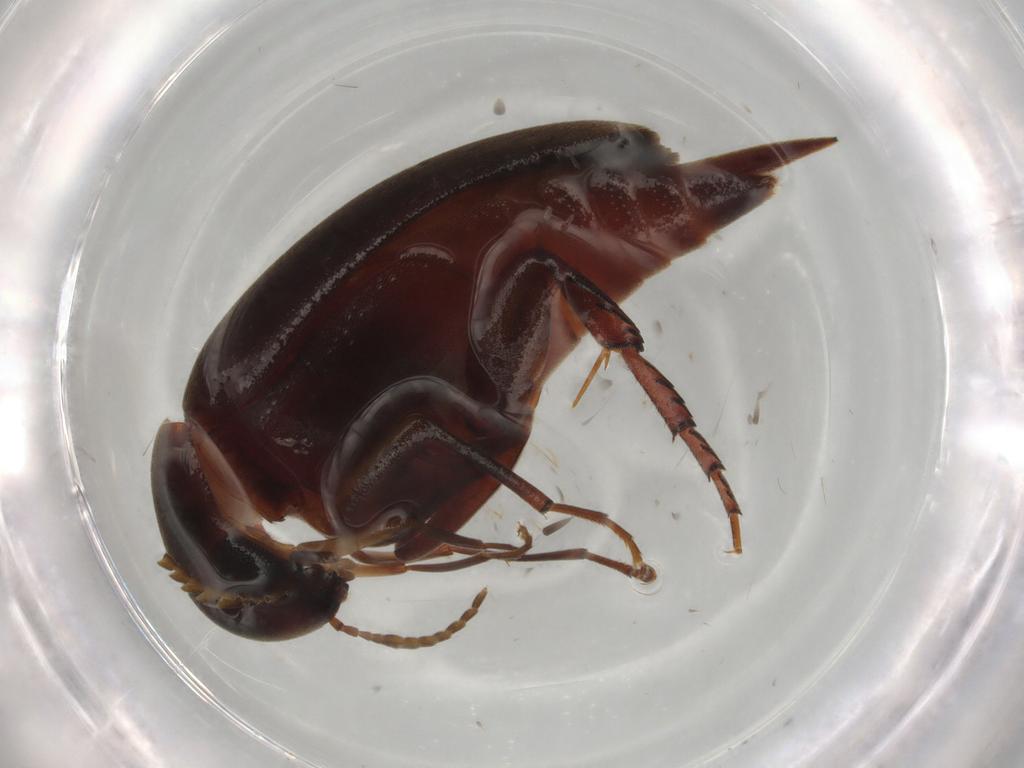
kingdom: Animalia
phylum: Arthropoda
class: Insecta
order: Coleoptera
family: Mordellidae
